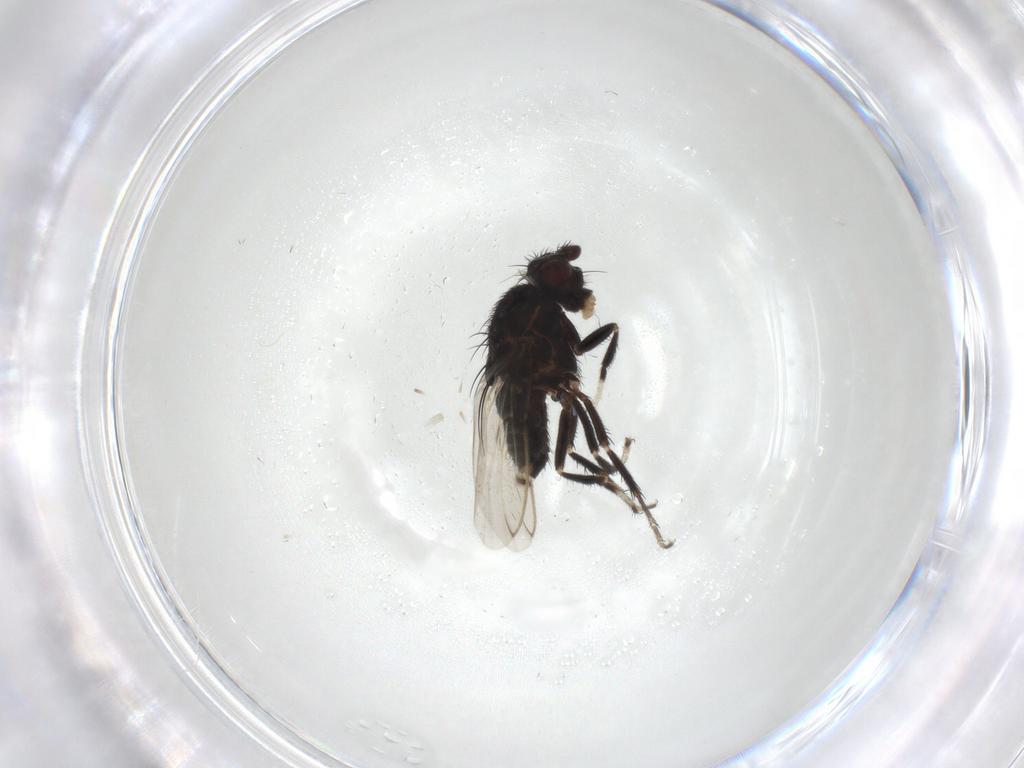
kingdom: Animalia
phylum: Arthropoda
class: Insecta
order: Diptera
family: Sphaeroceridae
